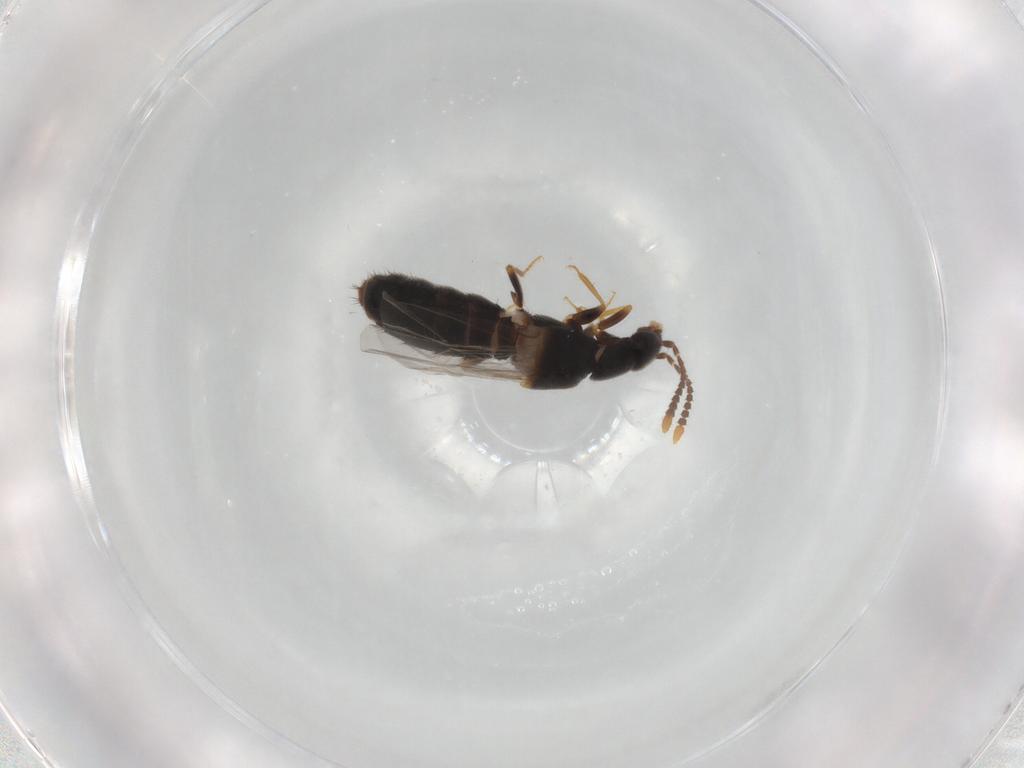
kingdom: Animalia
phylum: Arthropoda
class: Insecta
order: Coleoptera
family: Staphylinidae
